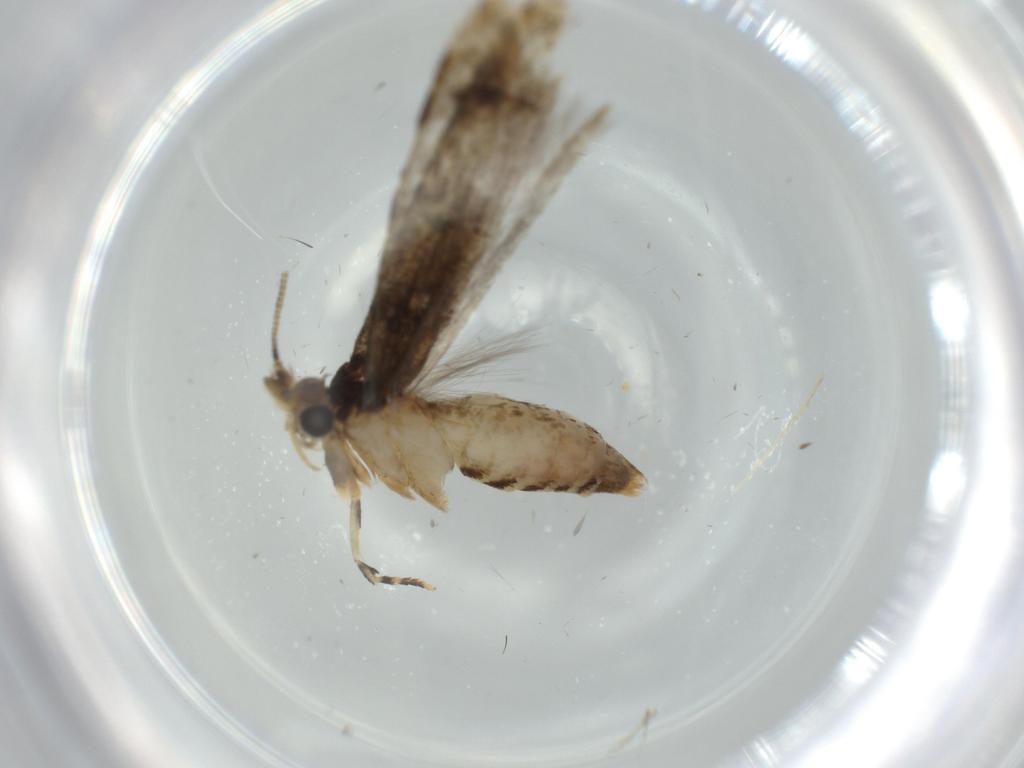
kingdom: Animalia
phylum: Arthropoda
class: Insecta
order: Lepidoptera
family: Tineidae
